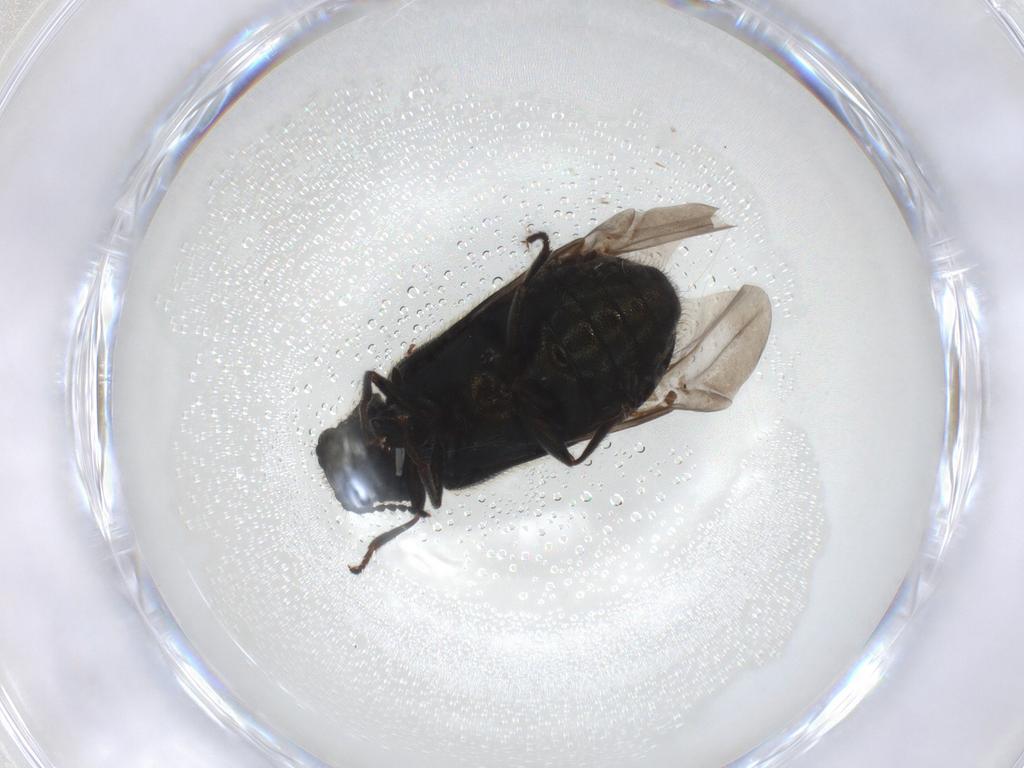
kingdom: Animalia
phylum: Arthropoda
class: Insecta
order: Coleoptera
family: Melyridae
